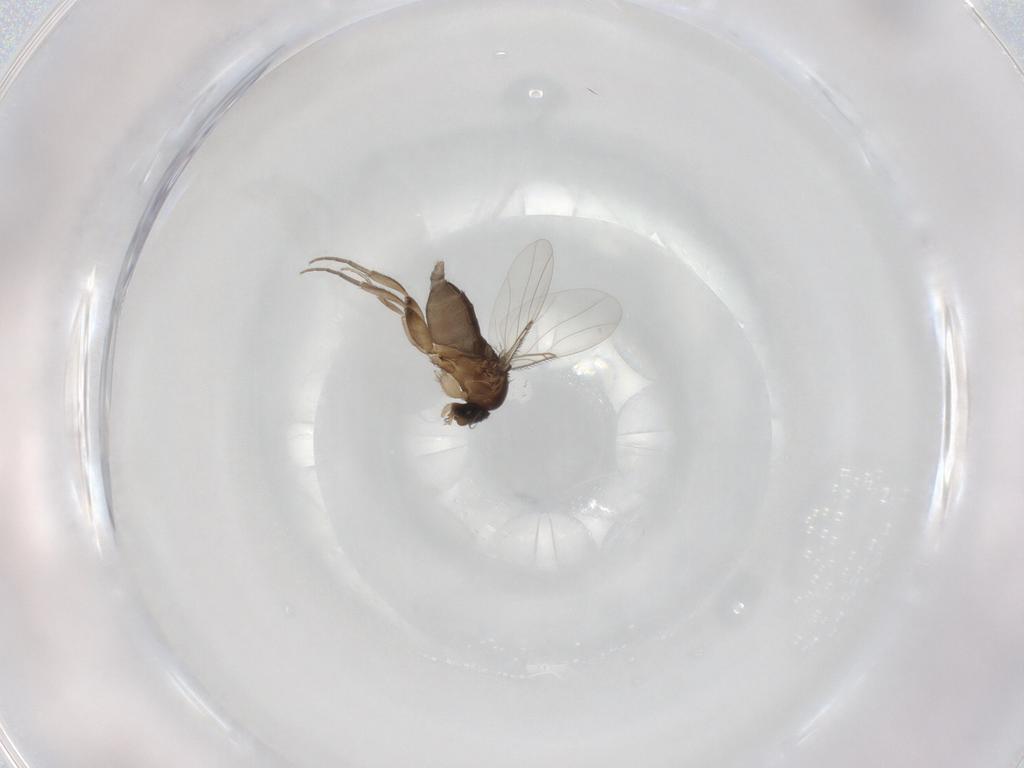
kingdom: Animalia
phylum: Arthropoda
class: Insecta
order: Diptera
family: Phoridae
